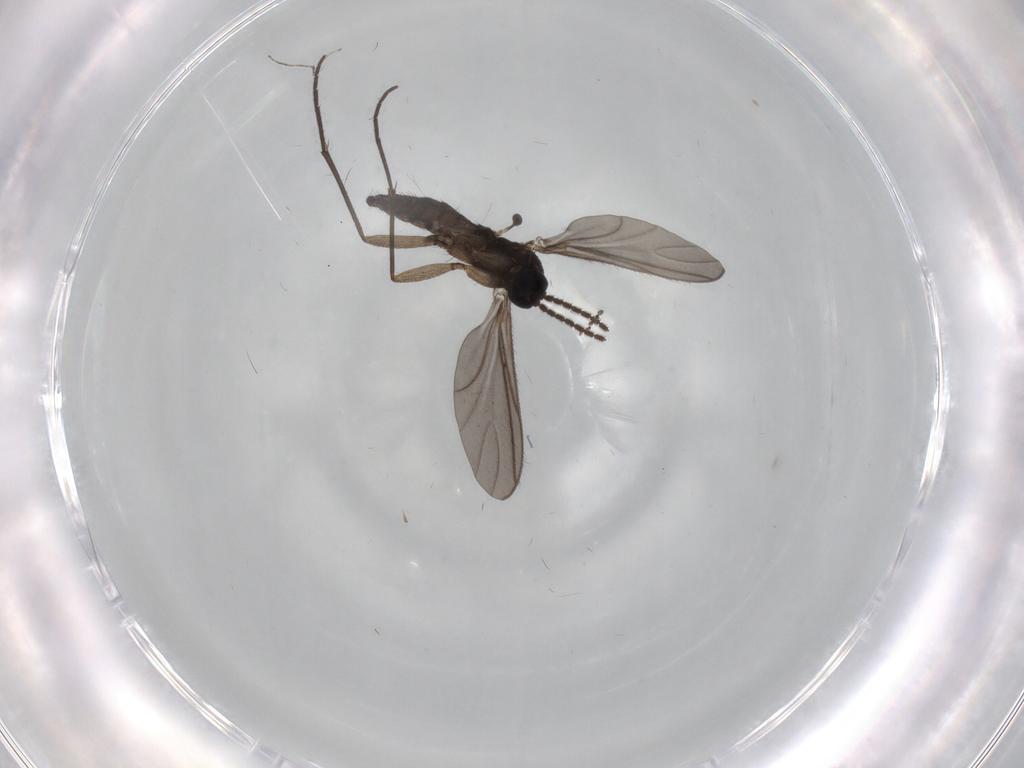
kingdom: Animalia
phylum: Arthropoda
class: Insecta
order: Diptera
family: Sciaridae
